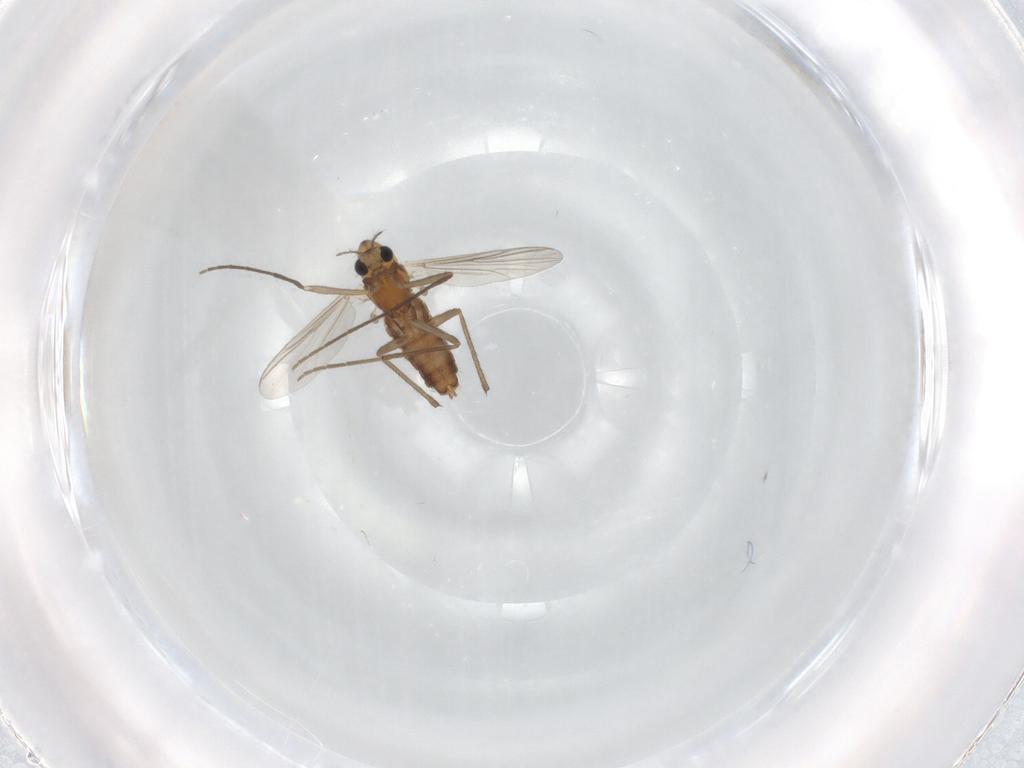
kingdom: Animalia
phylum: Arthropoda
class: Insecta
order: Diptera
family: Chironomidae
